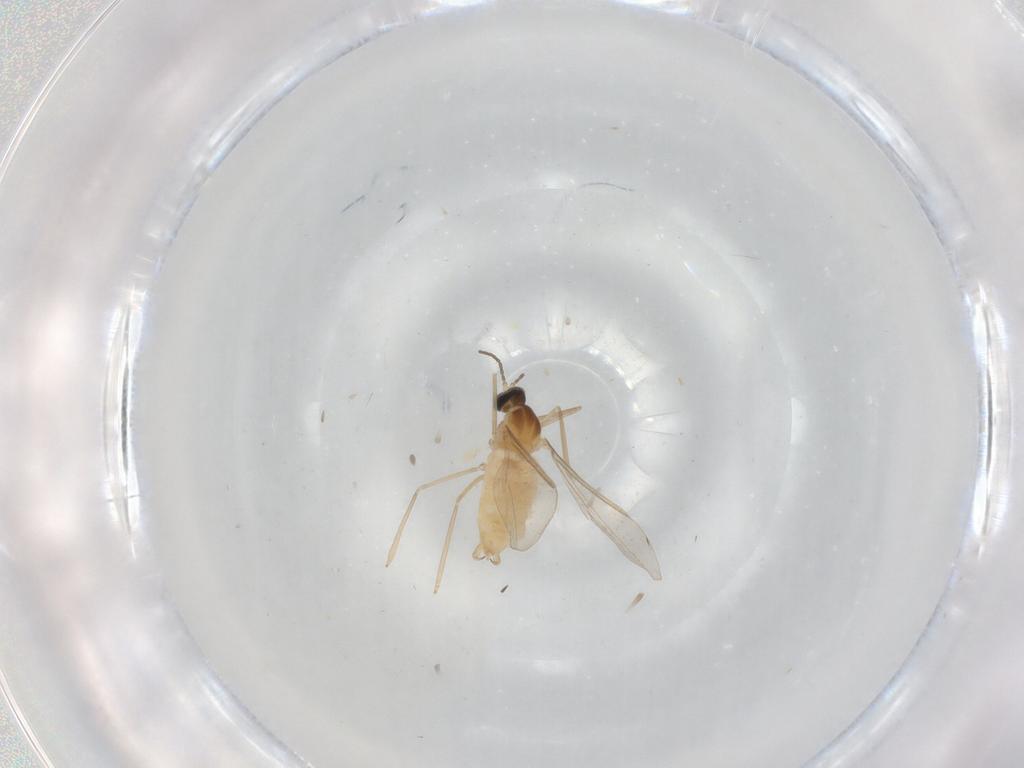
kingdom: Animalia
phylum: Arthropoda
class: Insecta
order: Diptera
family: Cecidomyiidae
